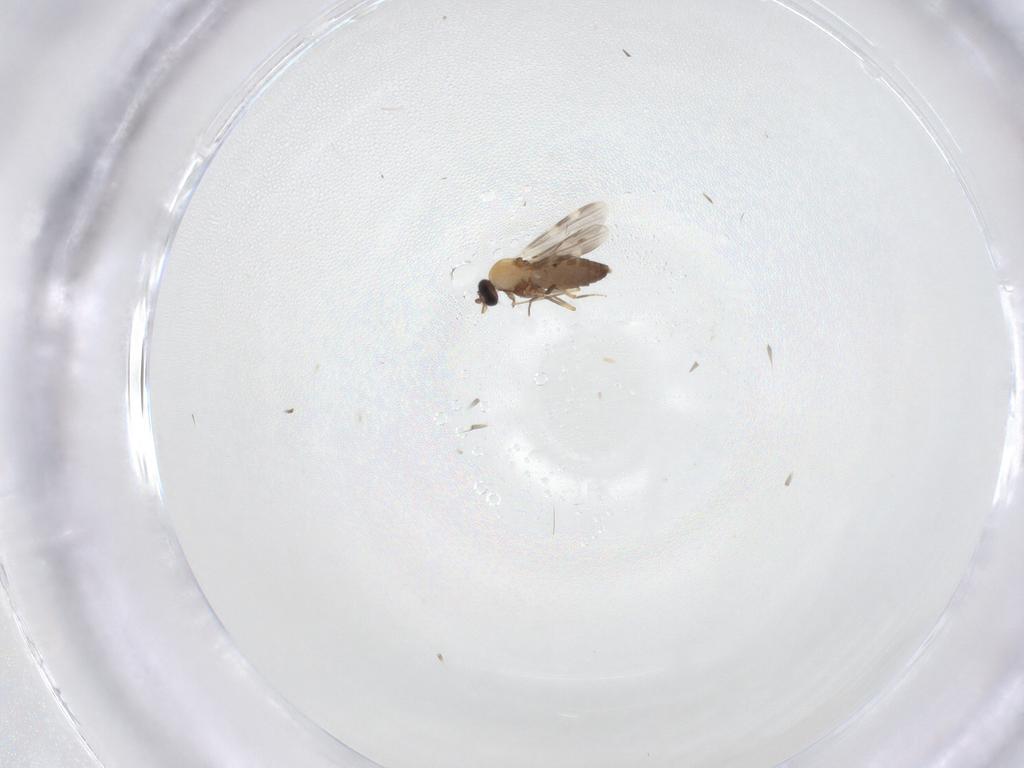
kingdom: Animalia
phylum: Arthropoda
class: Insecta
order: Diptera
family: Ceratopogonidae
